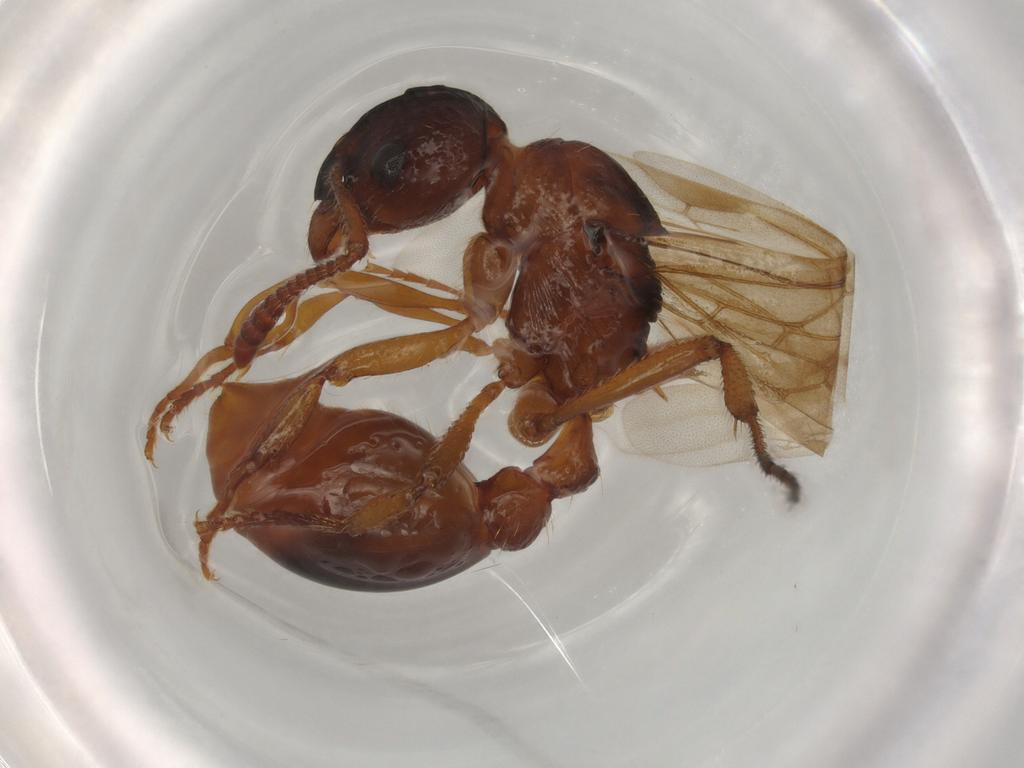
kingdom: Animalia
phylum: Arthropoda
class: Insecta
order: Hymenoptera
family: Formicidae
